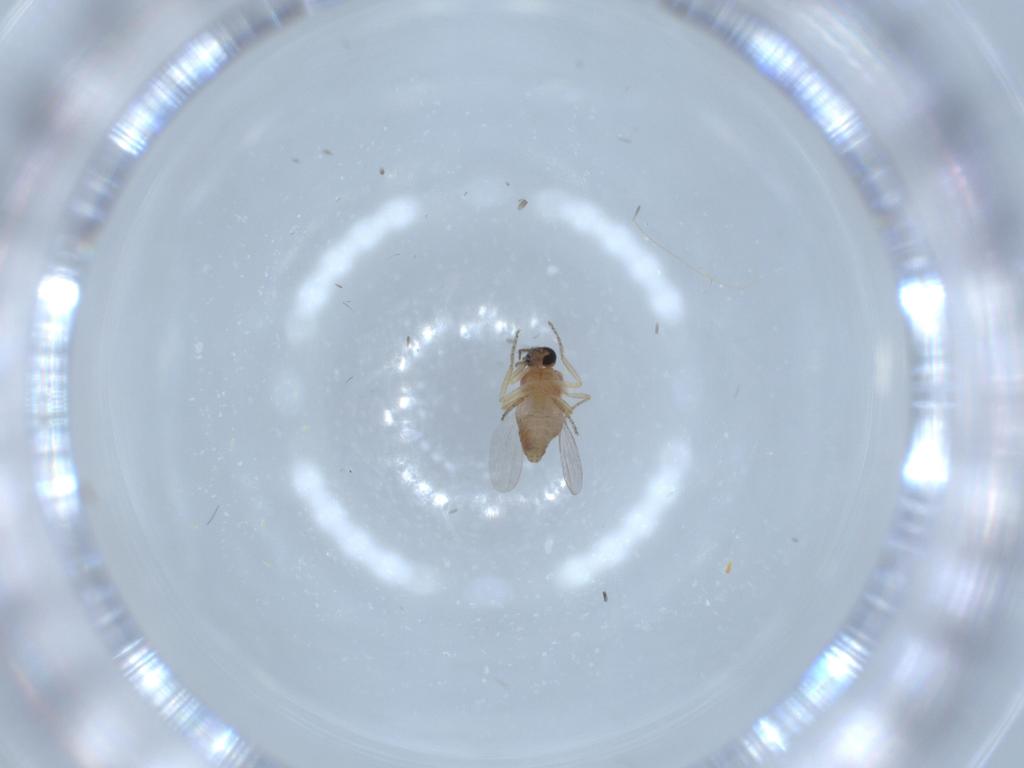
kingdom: Animalia
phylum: Arthropoda
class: Insecta
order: Diptera
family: Ceratopogonidae
